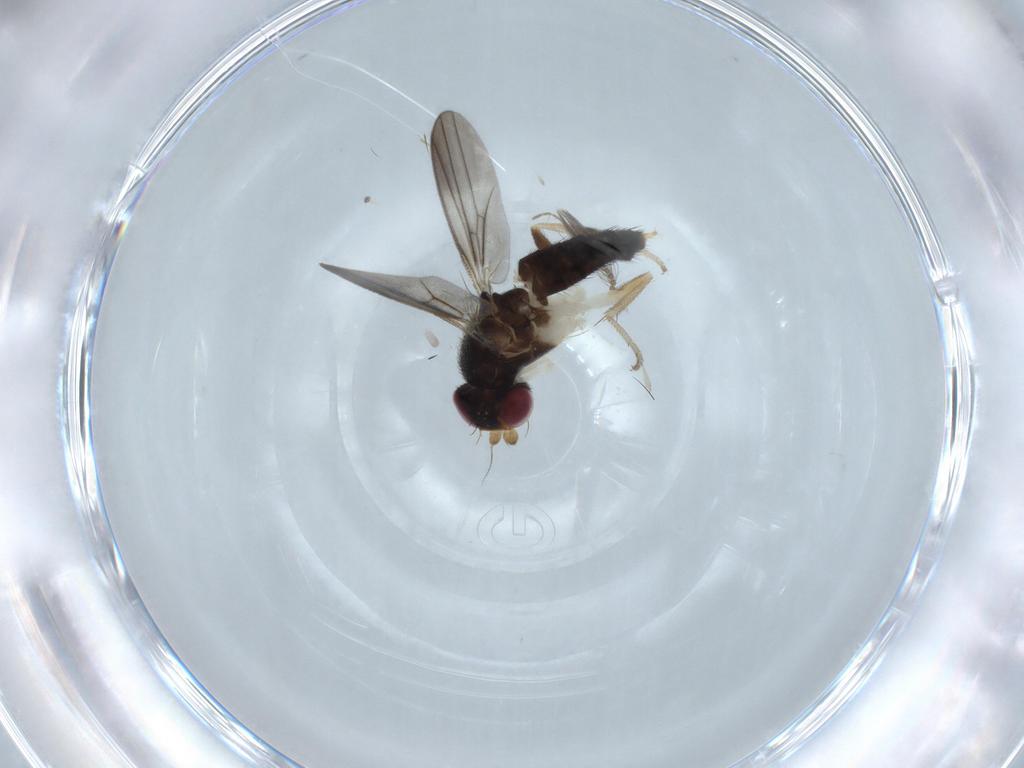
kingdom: Animalia
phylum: Arthropoda
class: Insecta
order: Diptera
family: Clusiidae
